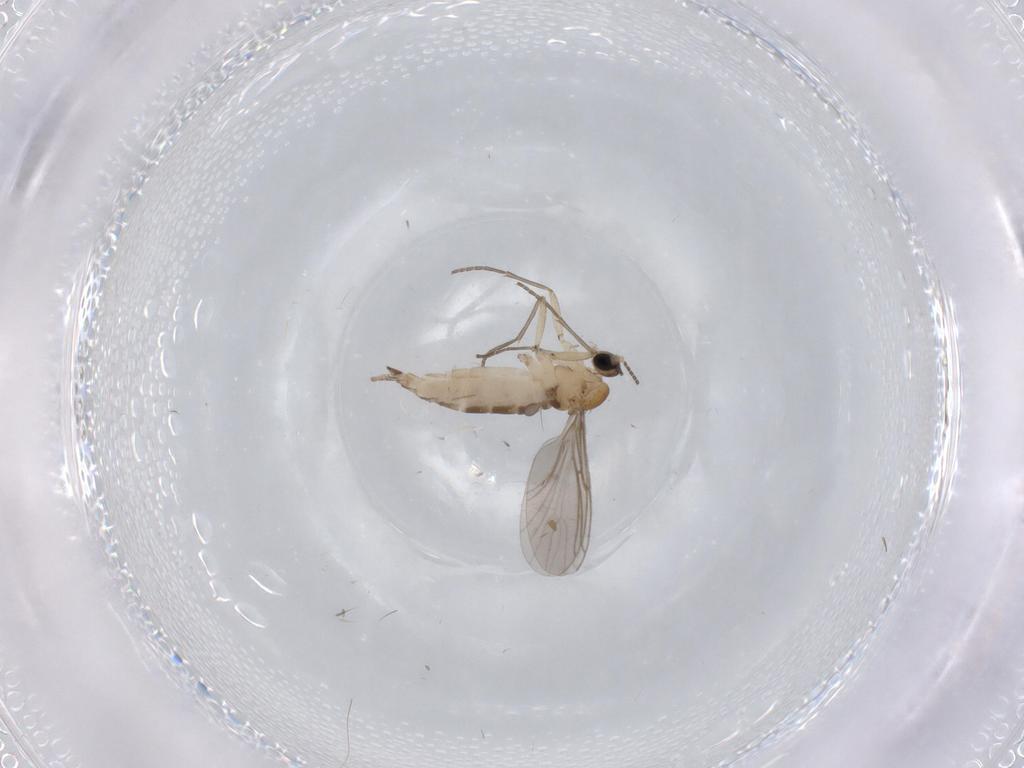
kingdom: Animalia
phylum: Arthropoda
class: Insecta
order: Diptera
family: Sciaridae
